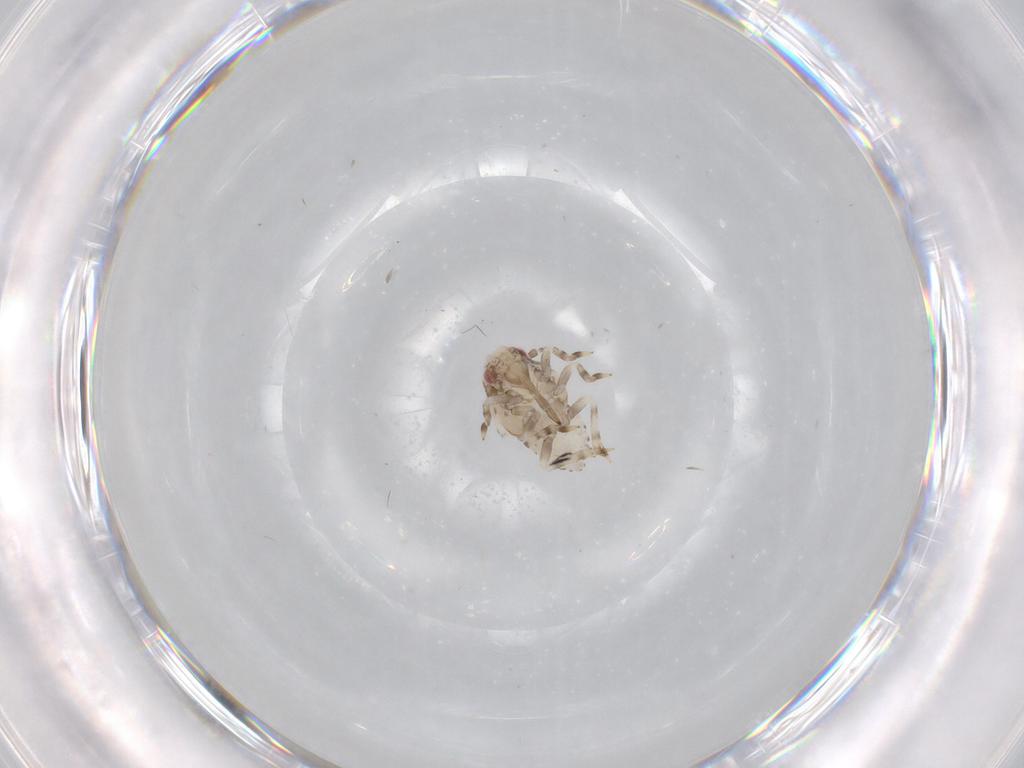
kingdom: Animalia
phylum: Arthropoda
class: Insecta
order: Hemiptera
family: Acanaloniidae
